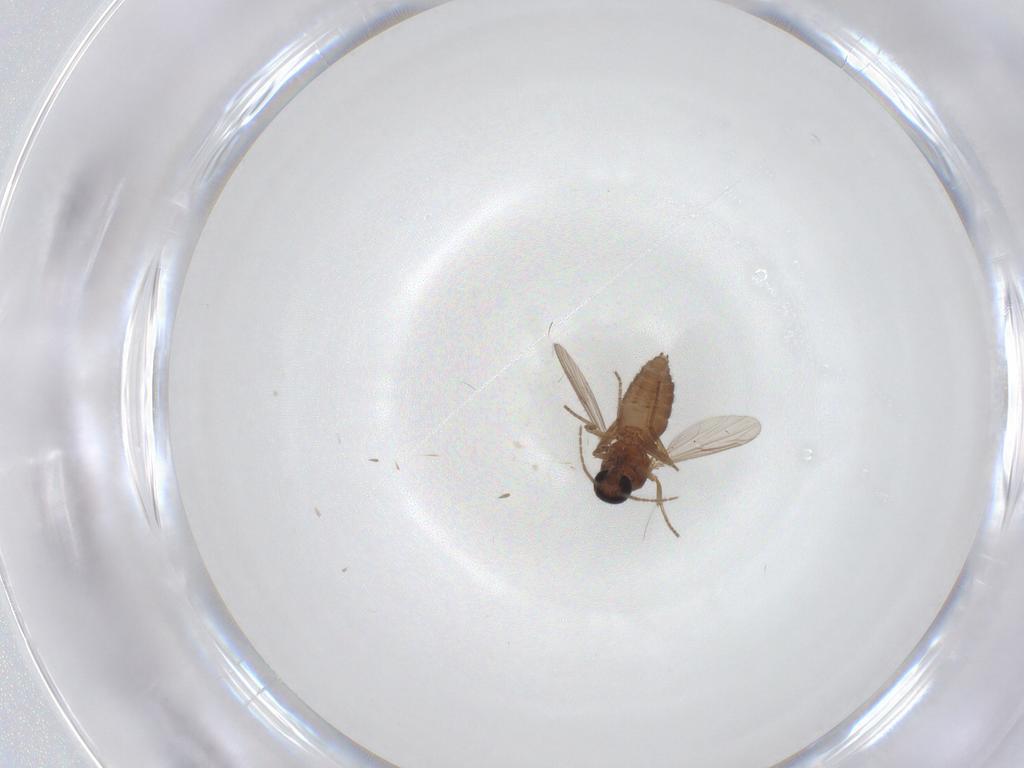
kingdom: Animalia
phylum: Arthropoda
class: Insecta
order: Diptera
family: Ceratopogonidae
